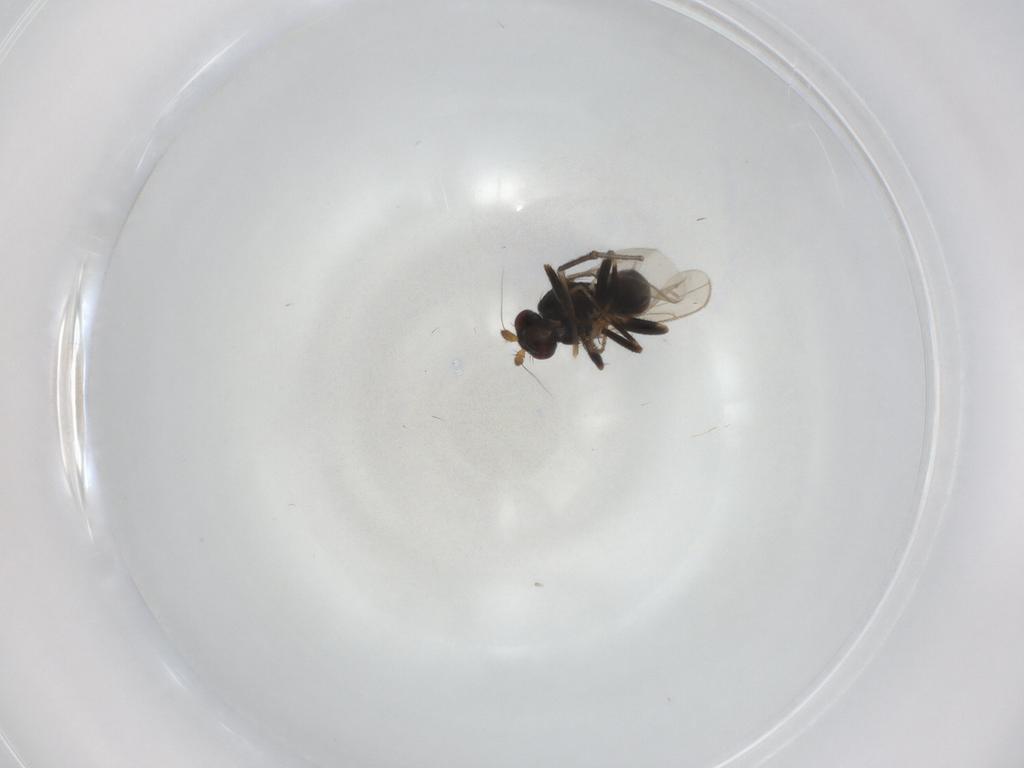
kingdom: Animalia
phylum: Arthropoda
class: Insecta
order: Diptera
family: Sphaeroceridae
